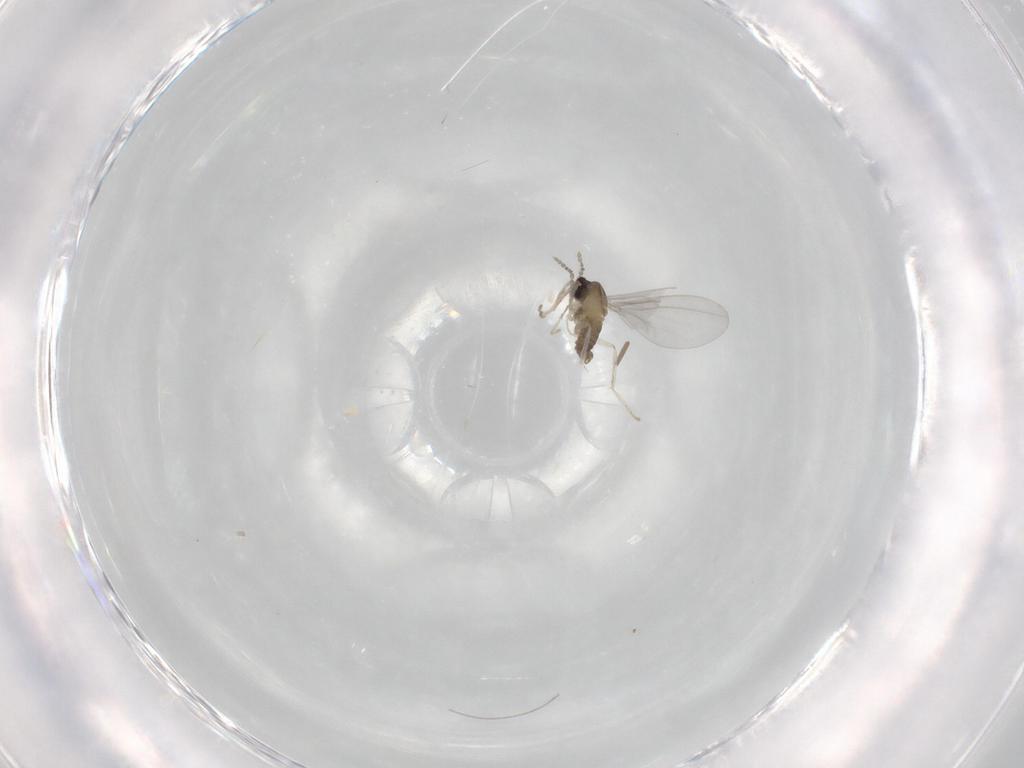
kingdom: Animalia
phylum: Arthropoda
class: Insecta
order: Diptera
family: Cecidomyiidae
